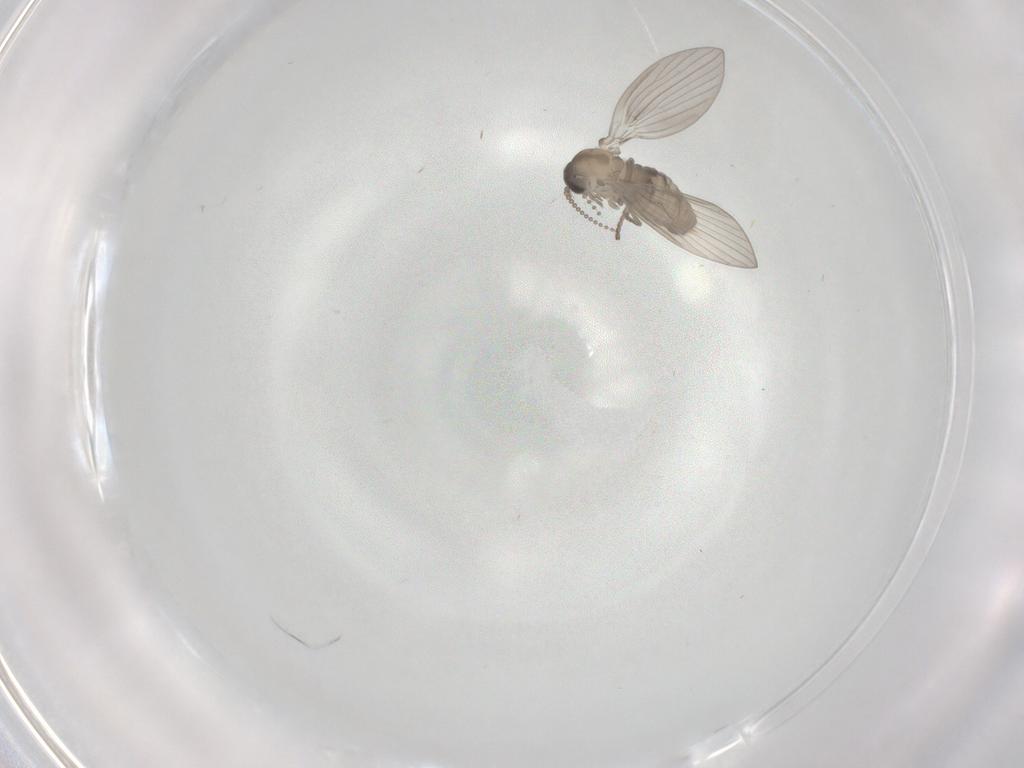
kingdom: Animalia
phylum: Arthropoda
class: Insecta
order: Diptera
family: Psychodidae
